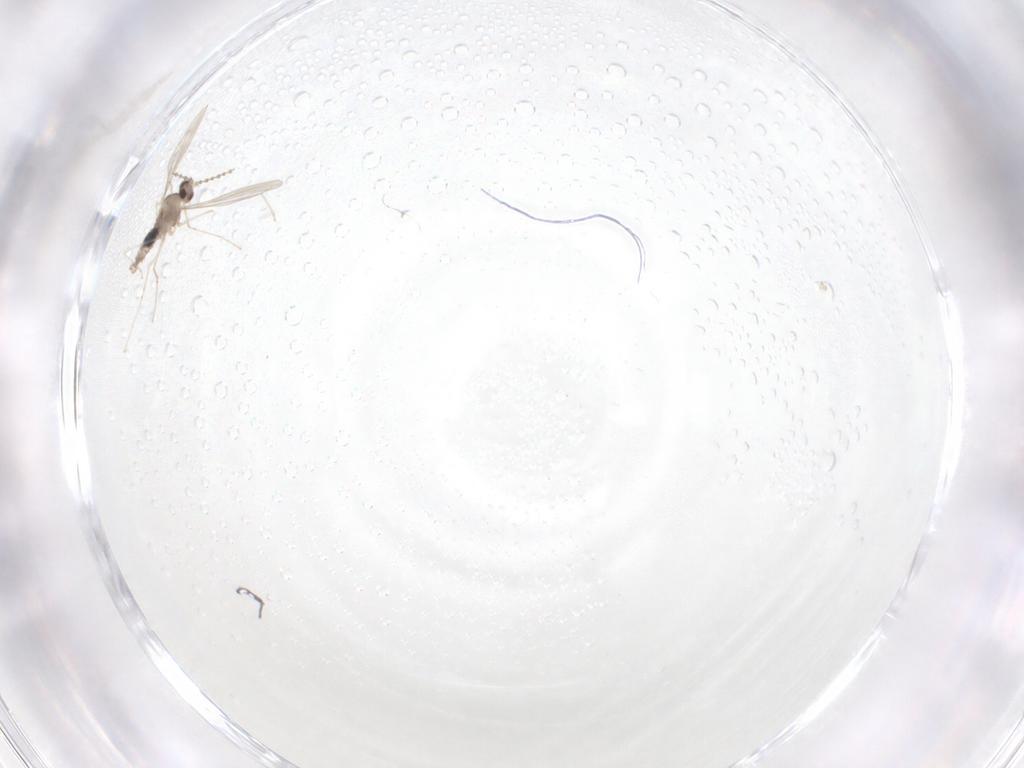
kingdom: Animalia
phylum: Arthropoda
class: Insecta
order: Diptera
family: Cecidomyiidae
